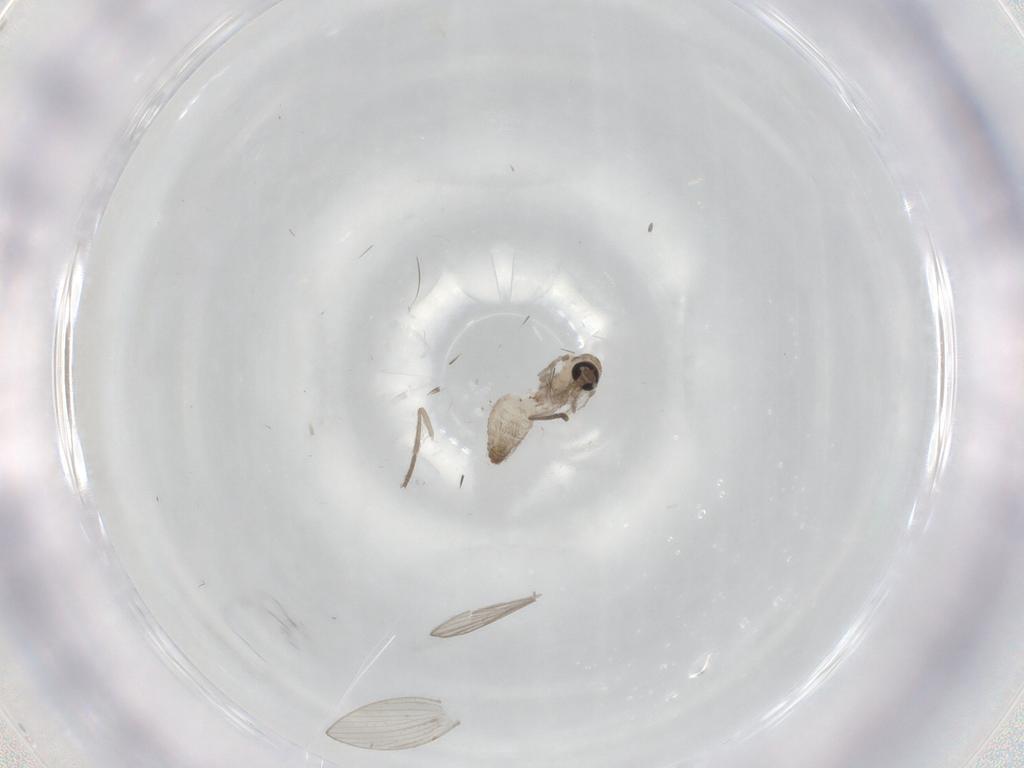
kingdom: Animalia
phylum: Arthropoda
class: Insecta
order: Diptera
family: Psychodidae
